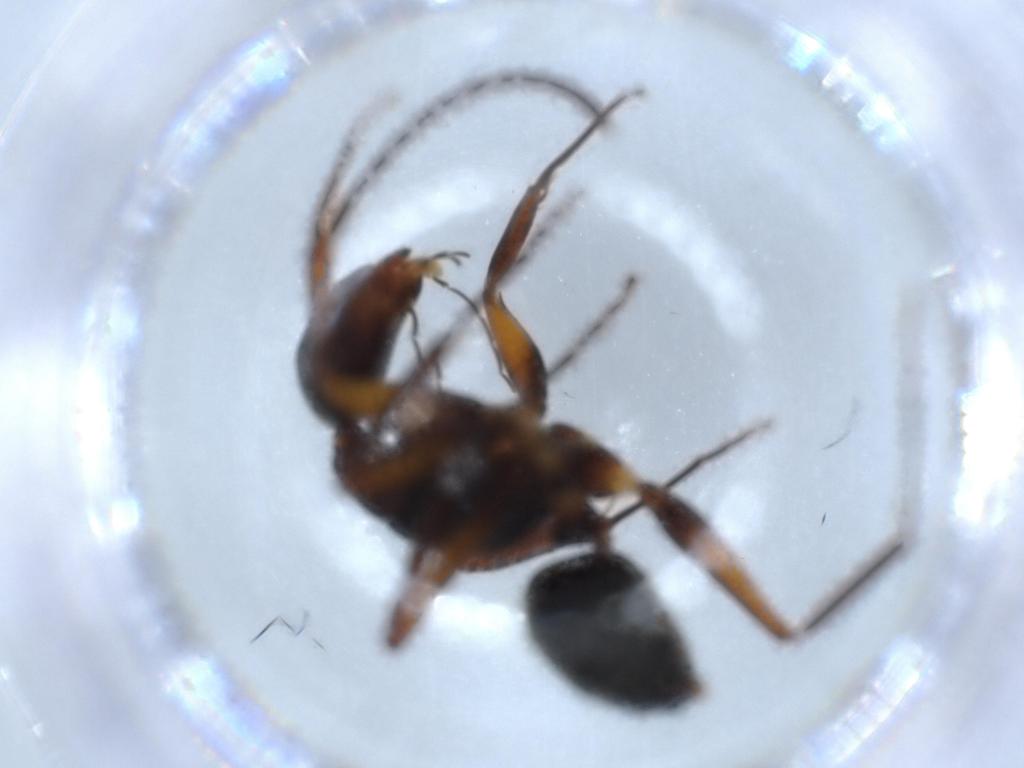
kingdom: Animalia
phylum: Arthropoda
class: Insecta
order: Hymenoptera
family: Formicidae
